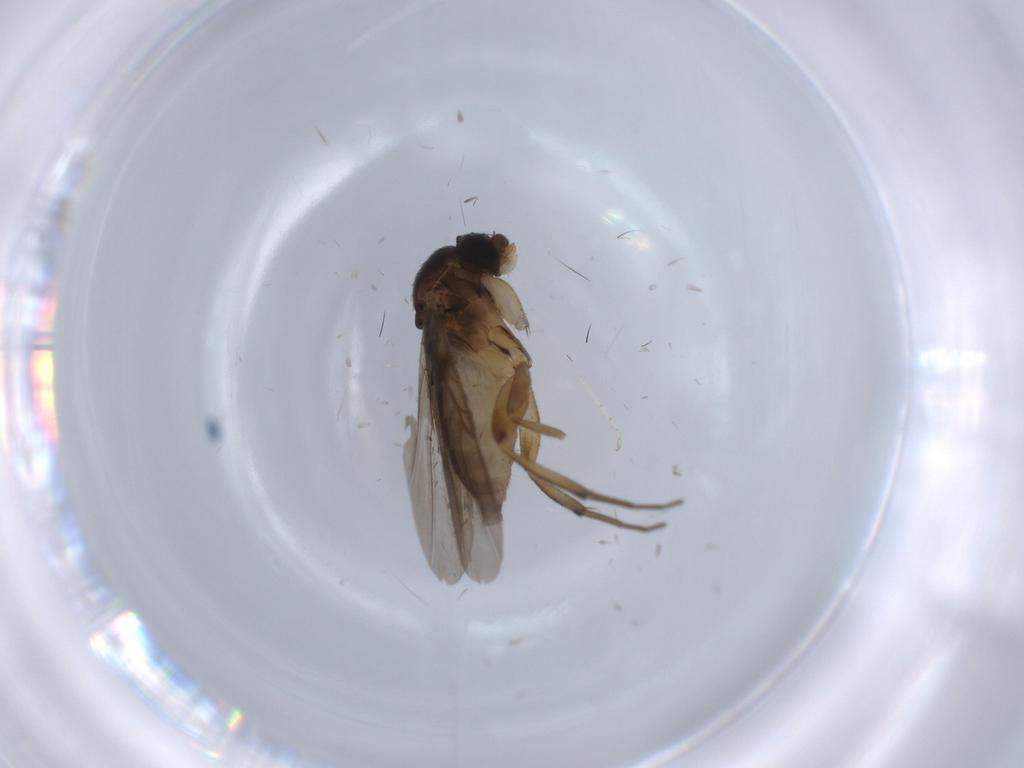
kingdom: Animalia
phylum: Arthropoda
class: Insecta
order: Diptera
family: Phoridae
